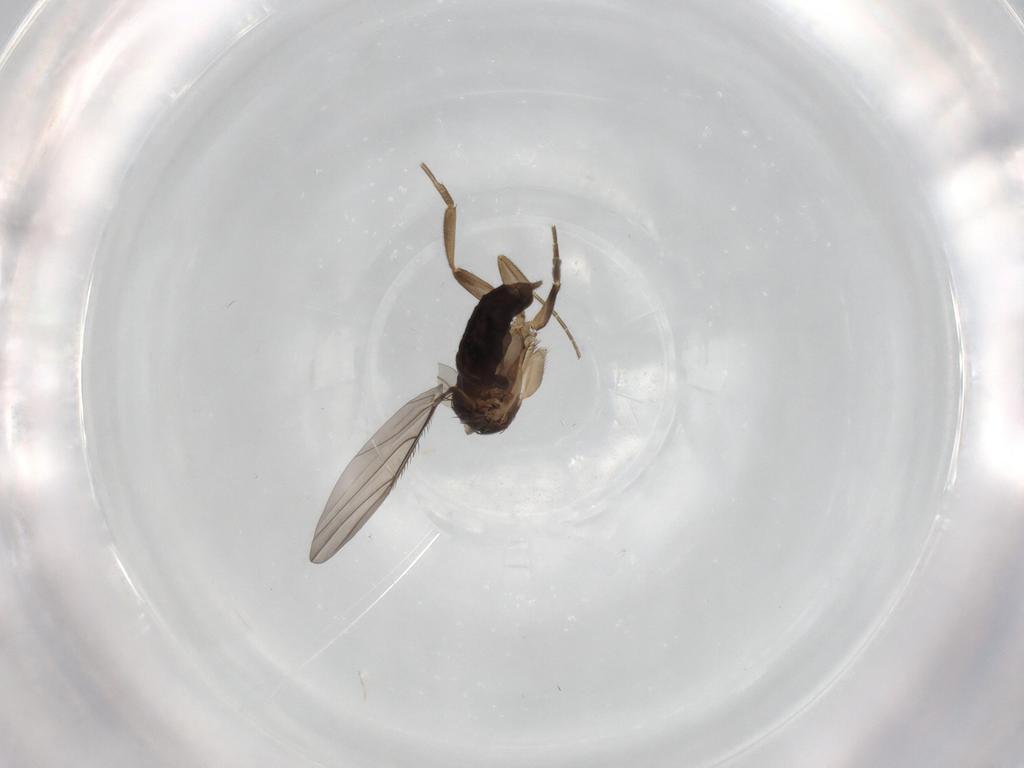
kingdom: Animalia
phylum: Arthropoda
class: Insecta
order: Diptera
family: Phoridae
